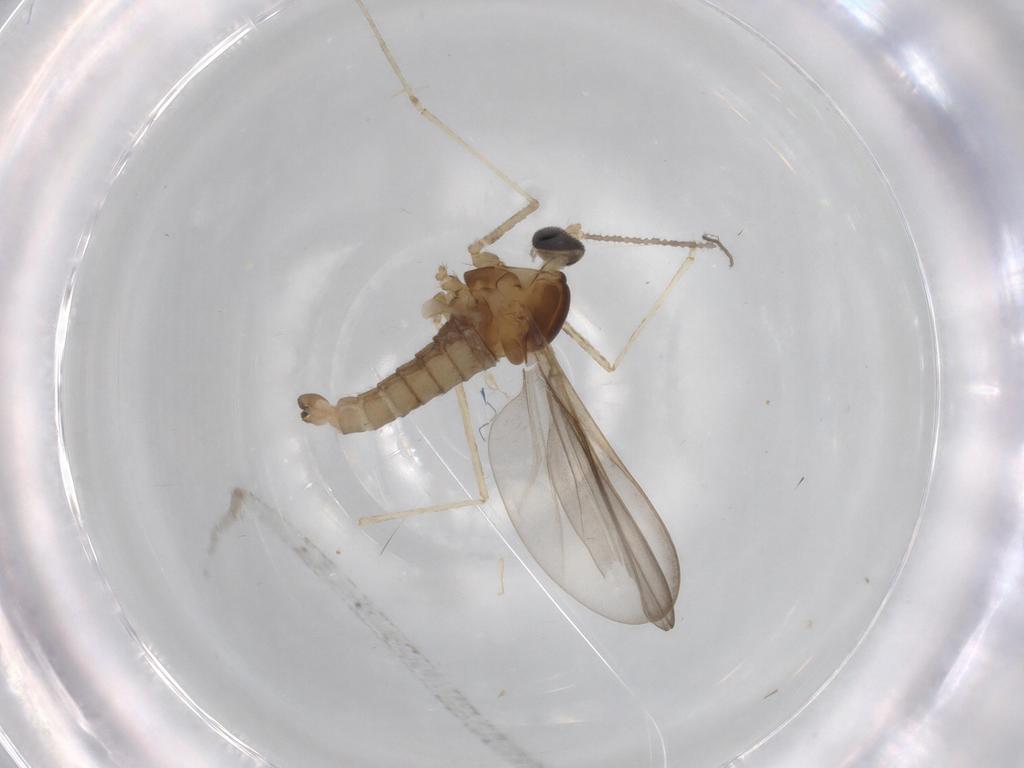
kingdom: Animalia
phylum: Arthropoda
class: Insecta
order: Diptera
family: Cecidomyiidae
